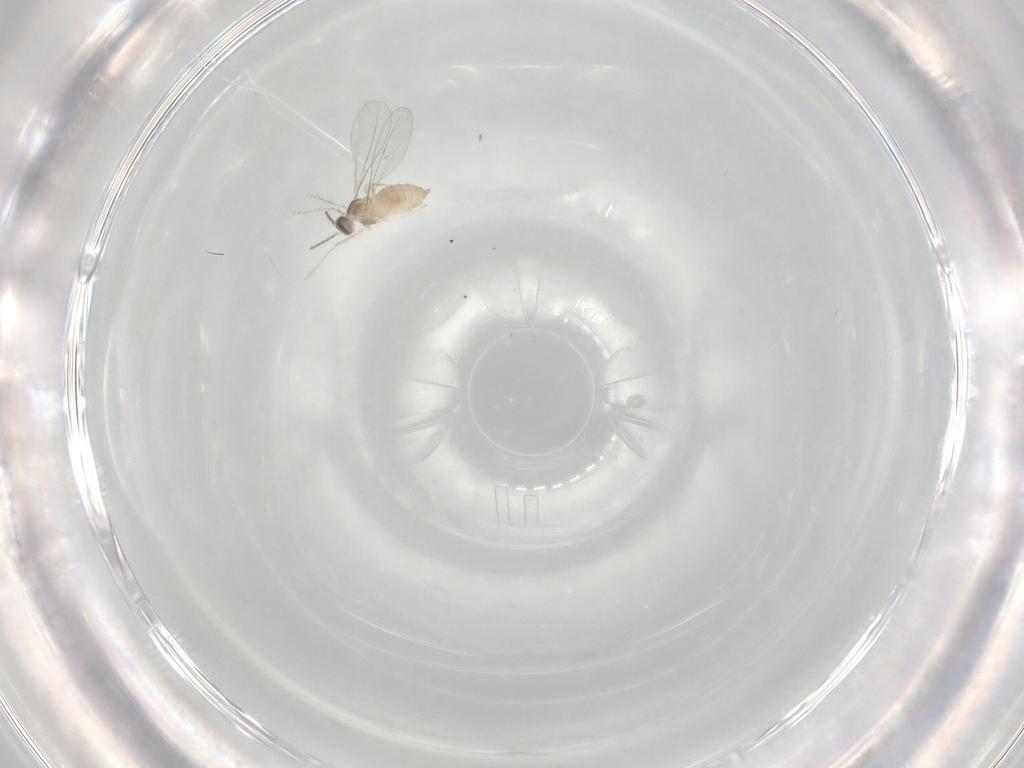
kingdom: Animalia
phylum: Arthropoda
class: Insecta
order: Diptera
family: Cecidomyiidae
